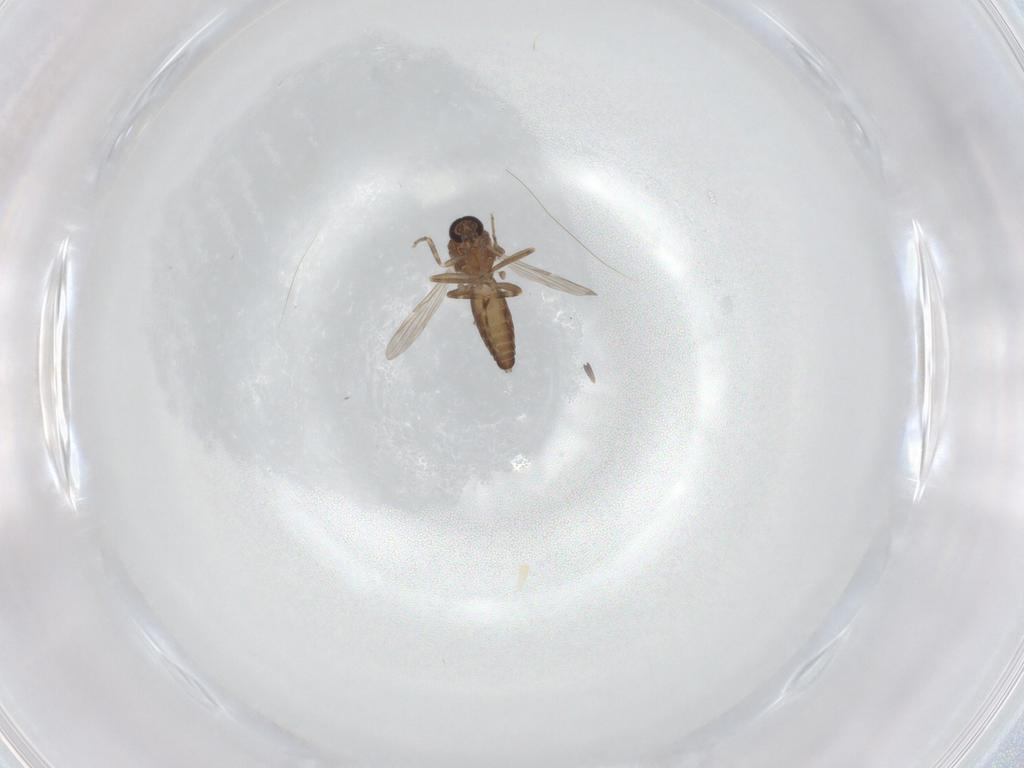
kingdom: Animalia
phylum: Arthropoda
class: Insecta
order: Diptera
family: Ceratopogonidae
